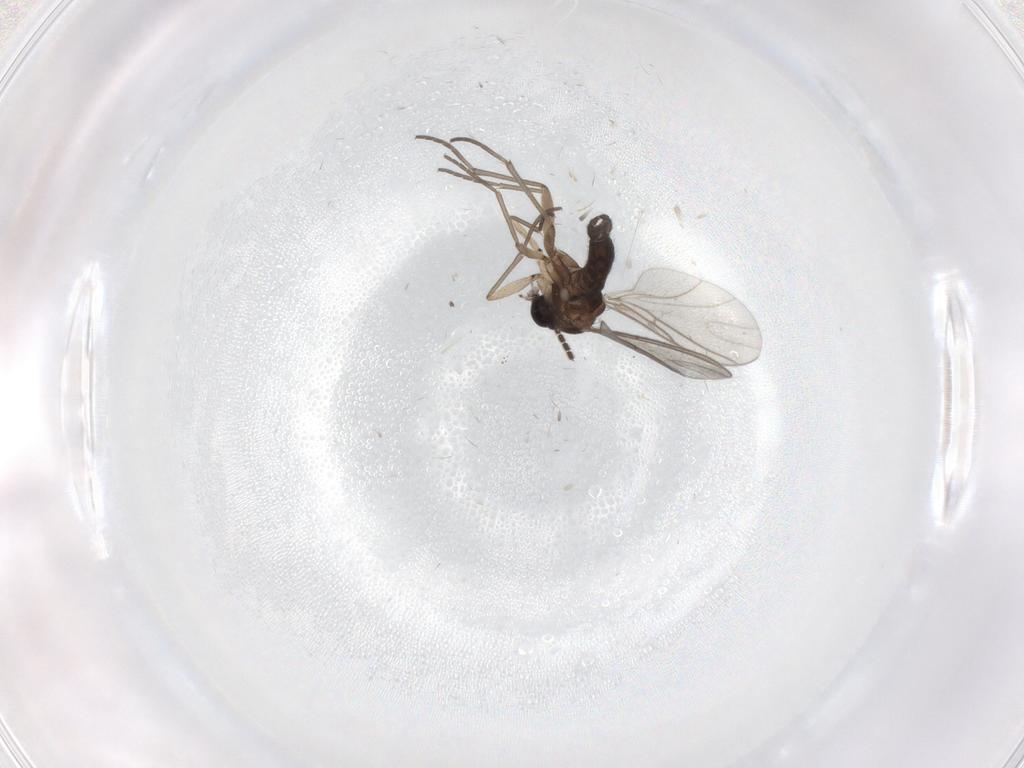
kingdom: Animalia
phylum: Arthropoda
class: Insecta
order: Diptera
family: Sciaridae
